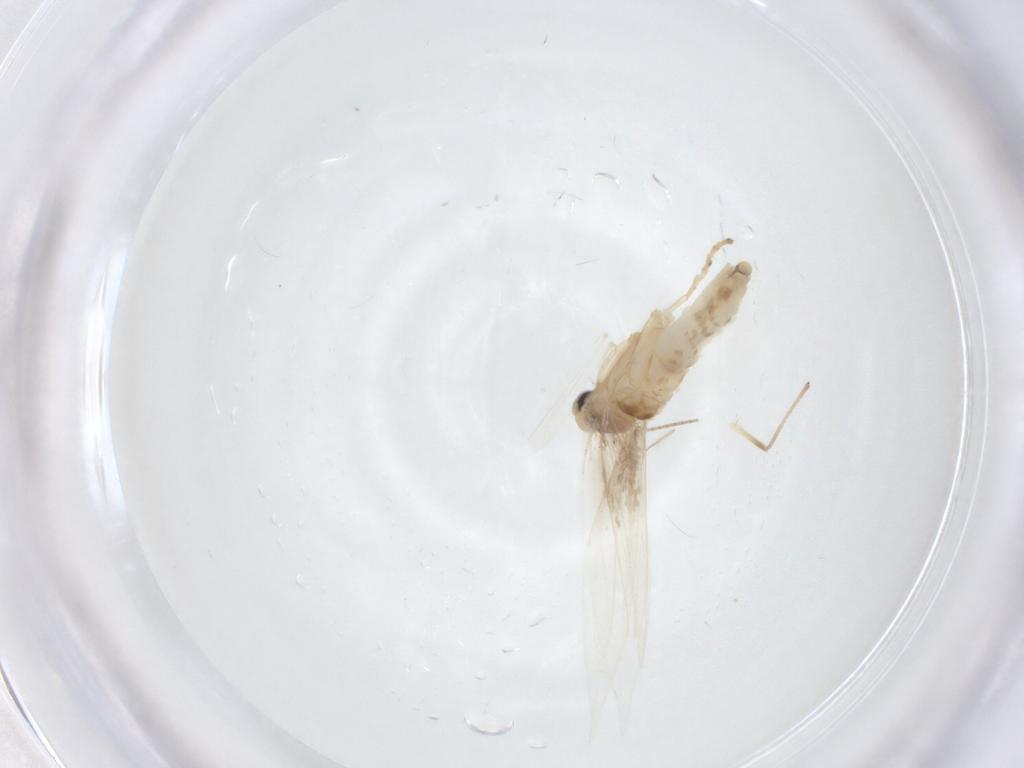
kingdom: Animalia
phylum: Arthropoda
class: Insecta
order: Lepidoptera
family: Gracillariidae
